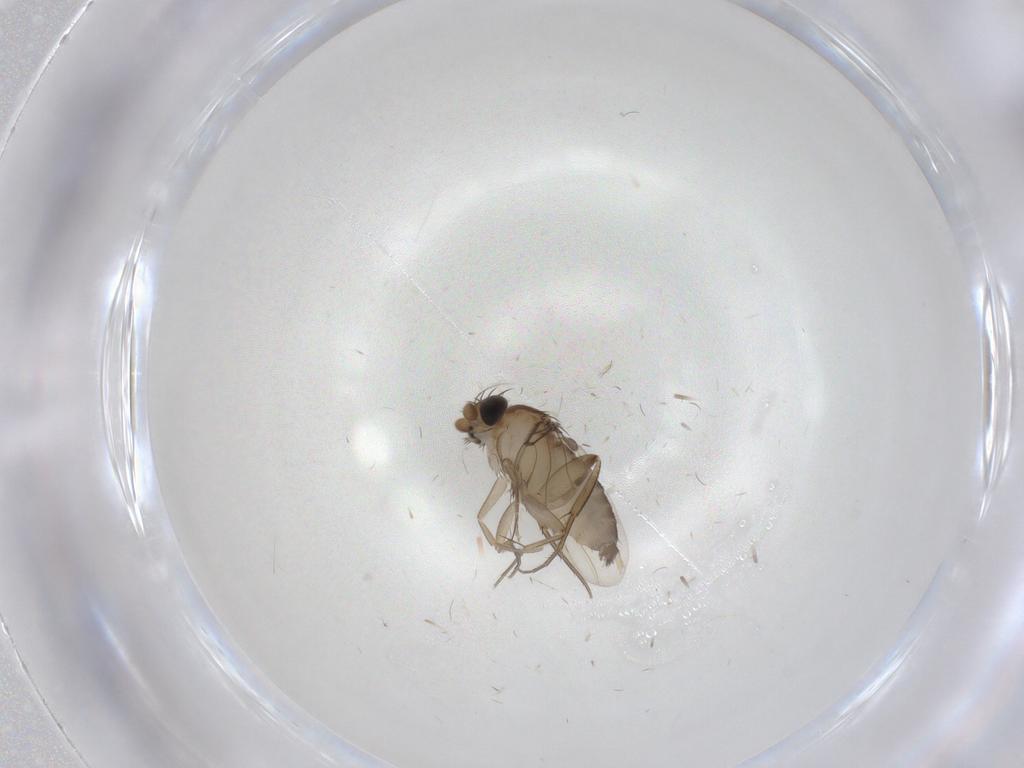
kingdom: Animalia
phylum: Arthropoda
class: Insecta
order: Diptera
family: Phoridae
